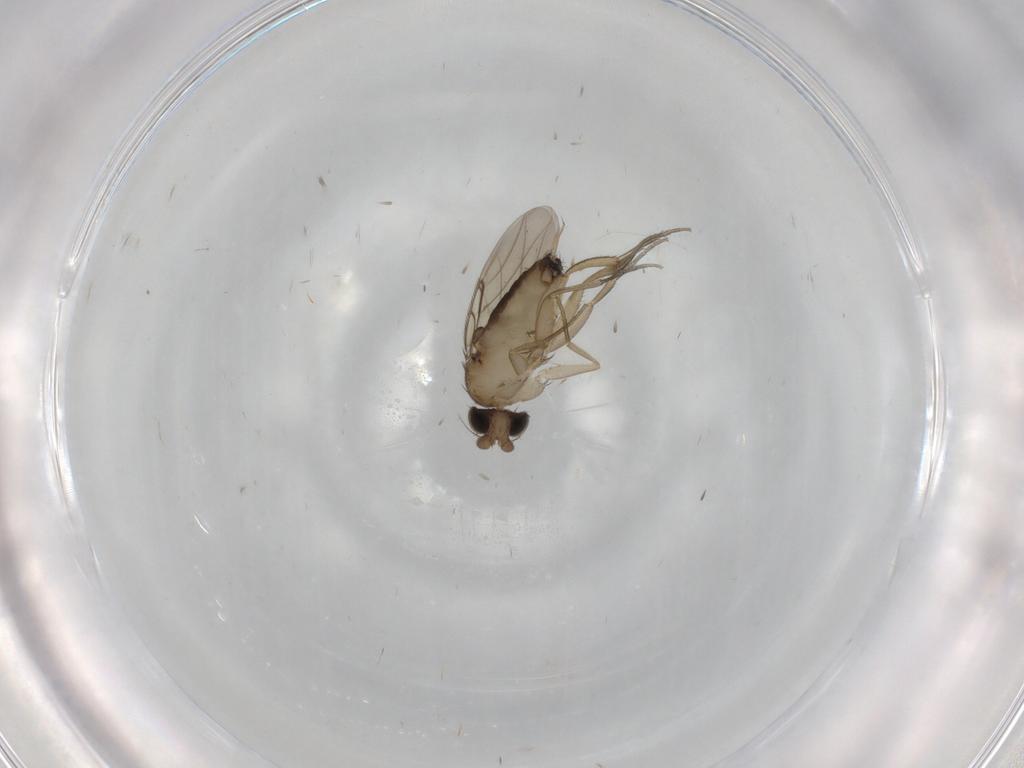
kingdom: Animalia
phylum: Arthropoda
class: Insecta
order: Diptera
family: Phoridae
